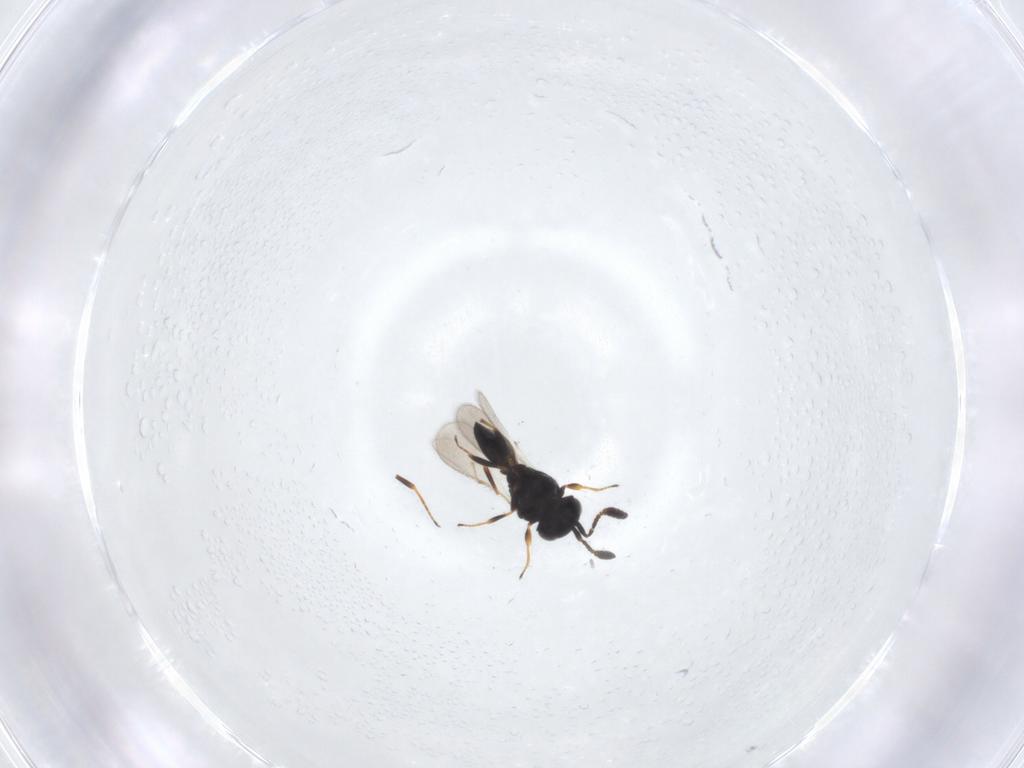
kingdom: Animalia
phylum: Arthropoda
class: Insecta
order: Hymenoptera
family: Scelionidae
